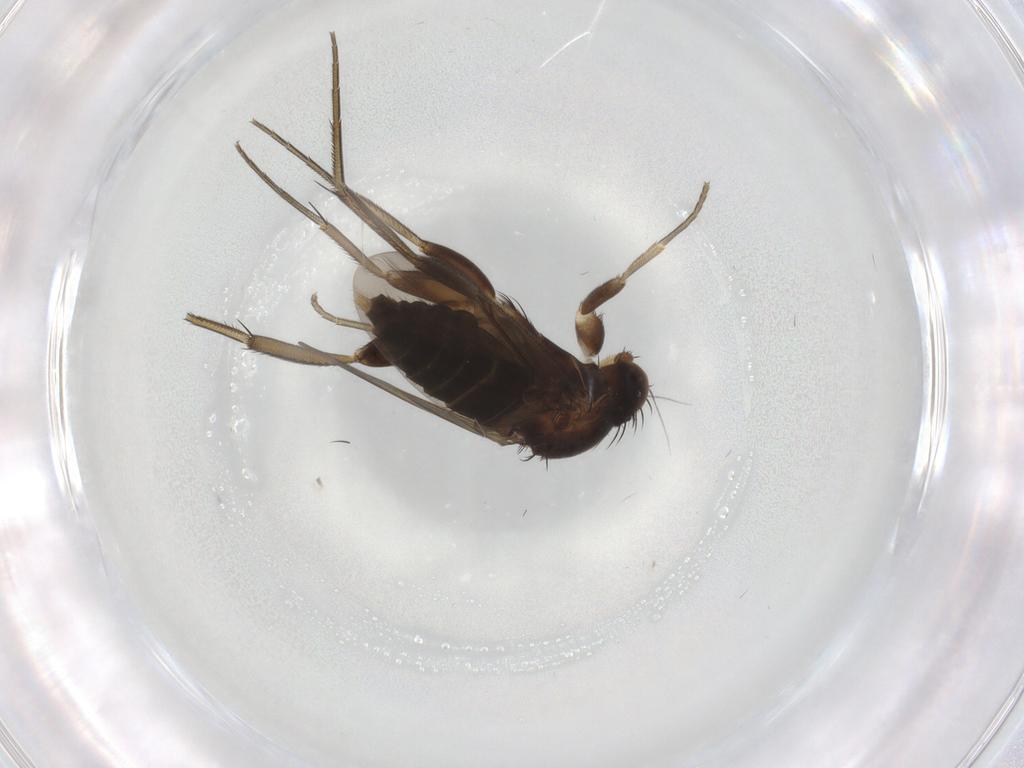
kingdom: Animalia
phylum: Arthropoda
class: Insecta
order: Diptera
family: Phoridae
